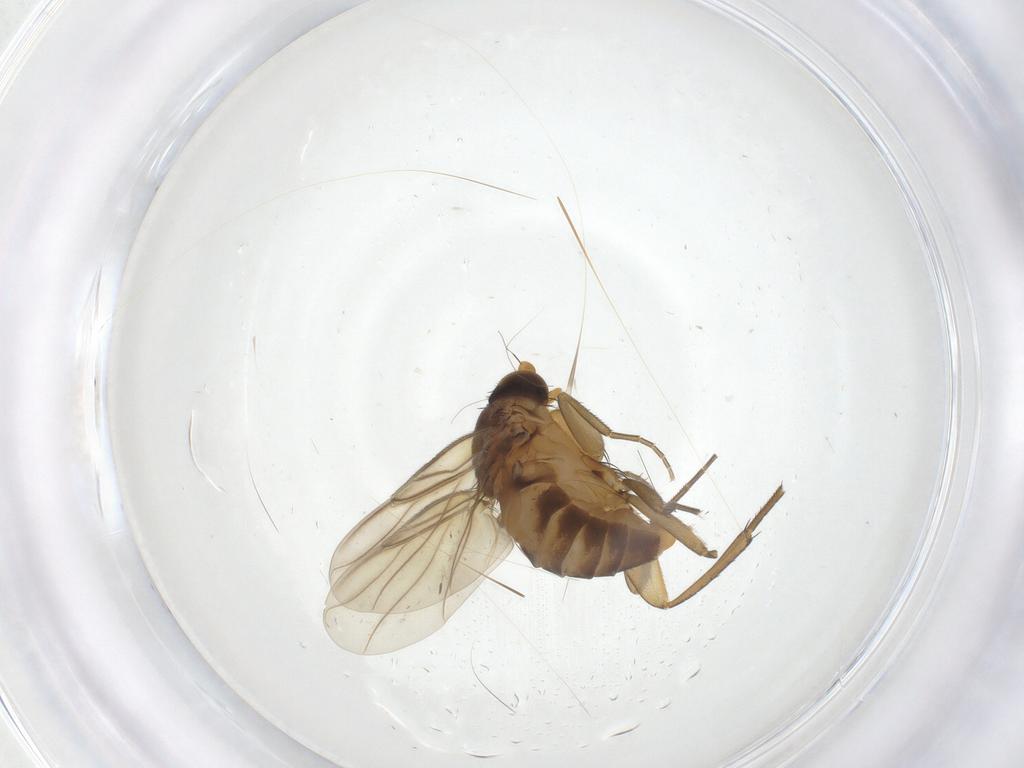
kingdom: Animalia
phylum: Arthropoda
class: Insecta
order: Diptera
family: Phoridae
